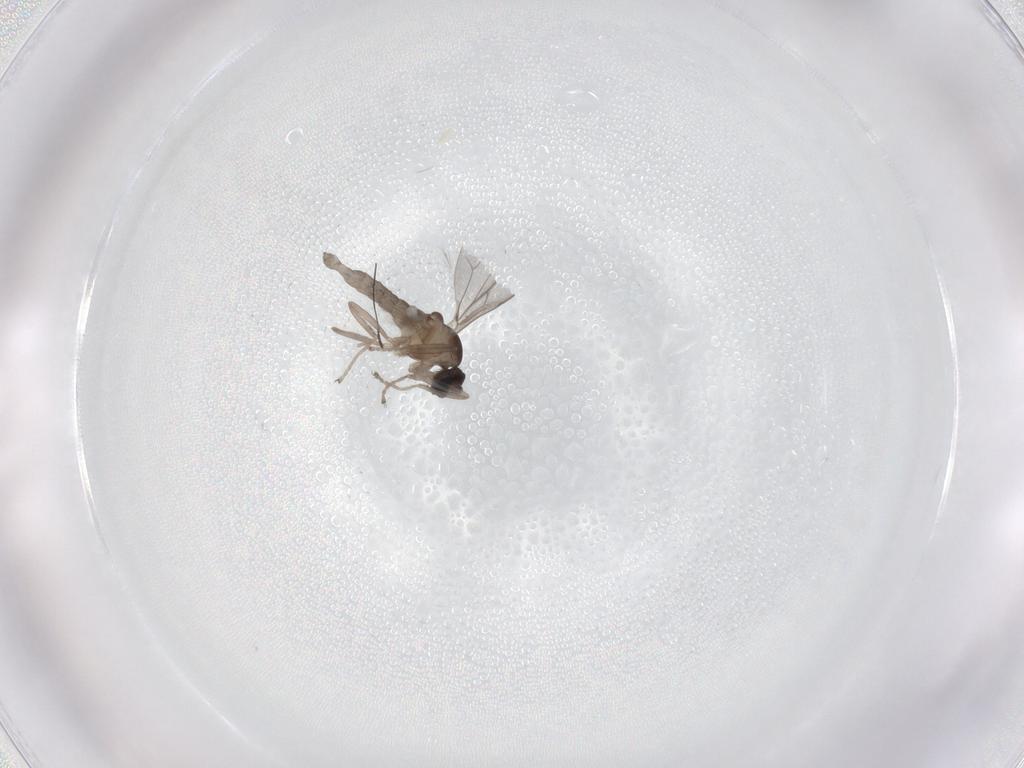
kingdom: Animalia
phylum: Arthropoda
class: Insecta
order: Diptera
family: Cecidomyiidae
